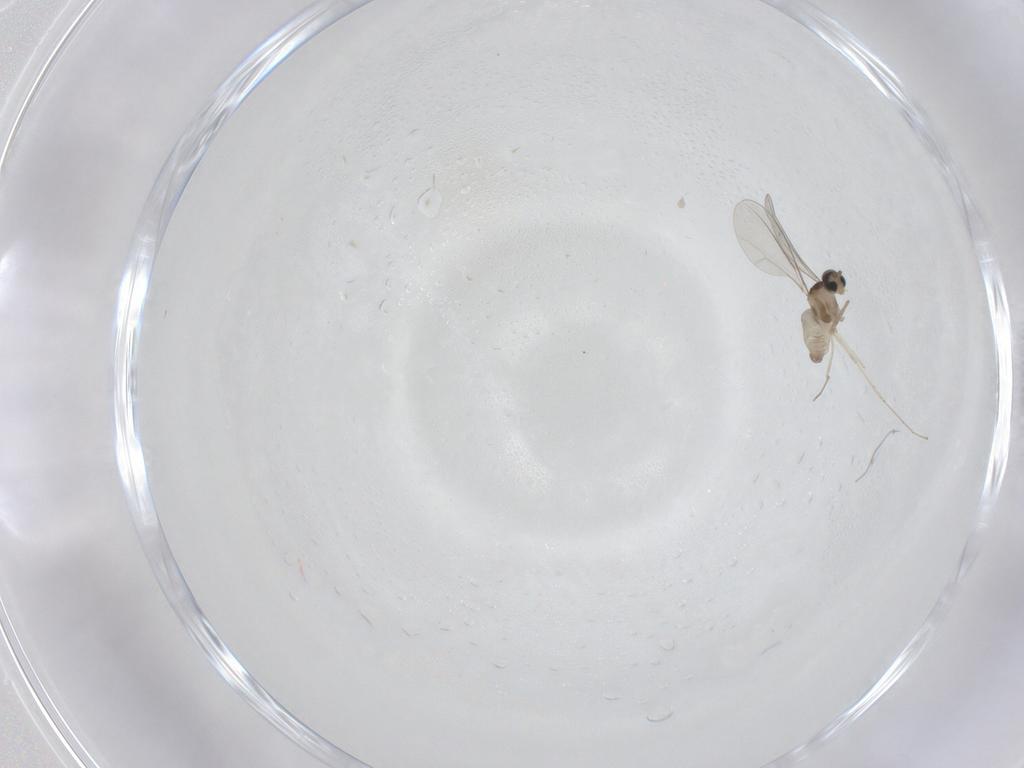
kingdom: Animalia
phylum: Arthropoda
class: Insecta
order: Diptera
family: Cecidomyiidae
